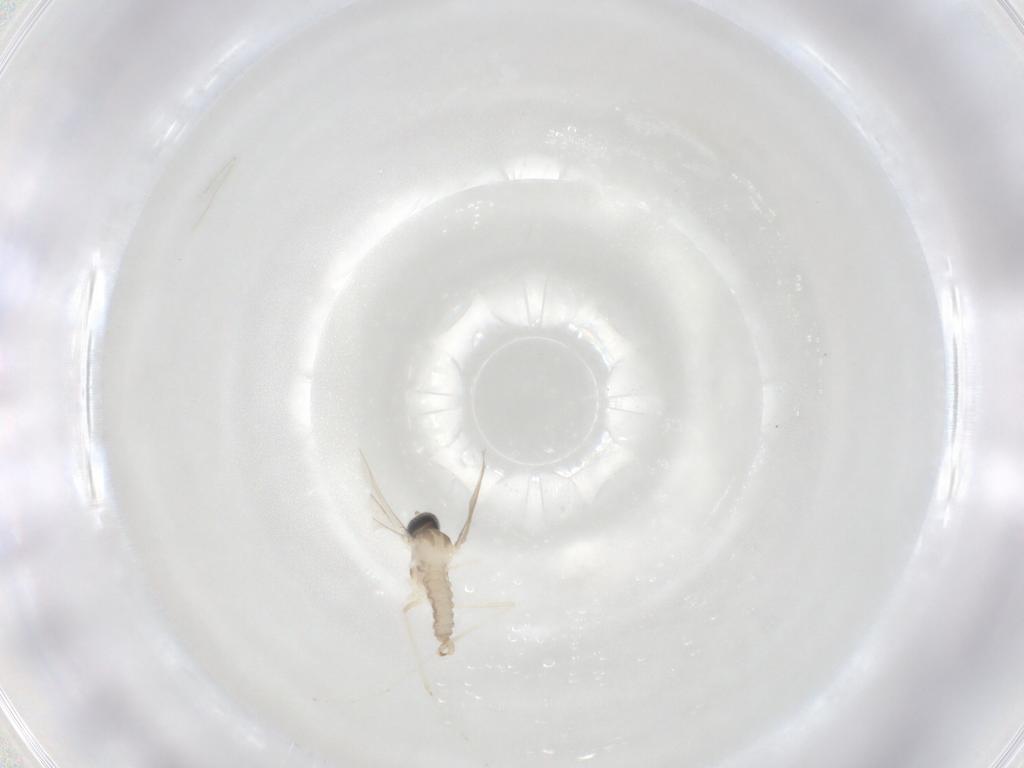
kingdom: Animalia
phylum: Arthropoda
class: Insecta
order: Diptera
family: Cecidomyiidae
